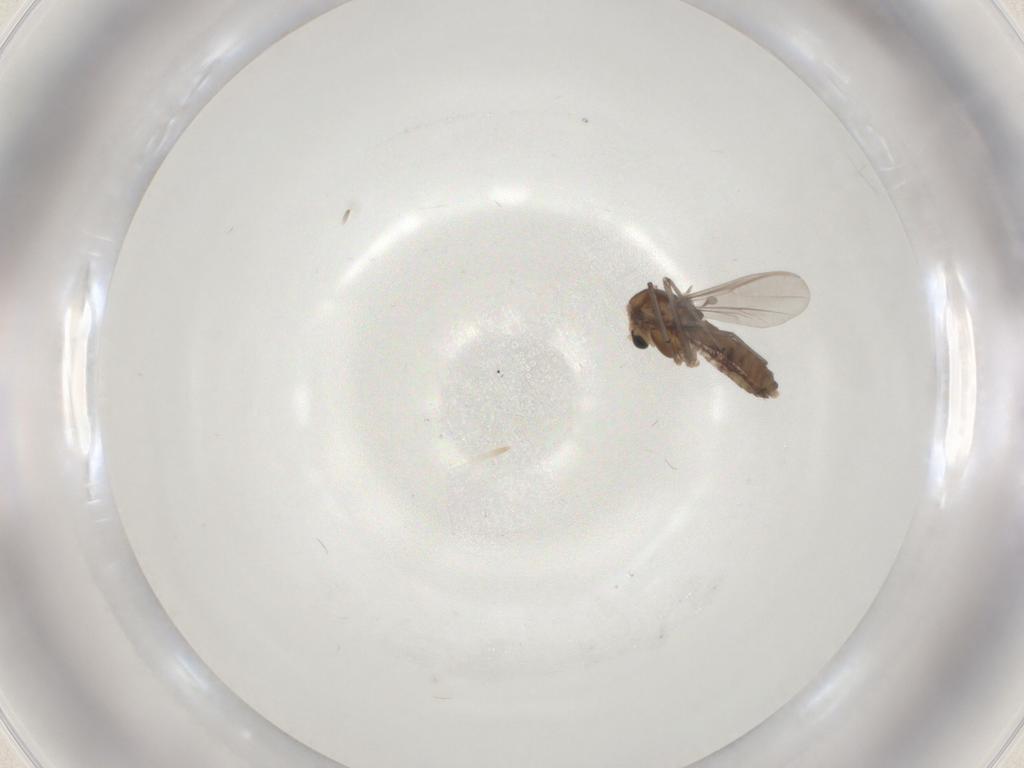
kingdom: Animalia
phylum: Arthropoda
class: Insecta
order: Diptera
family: Chironomidae
